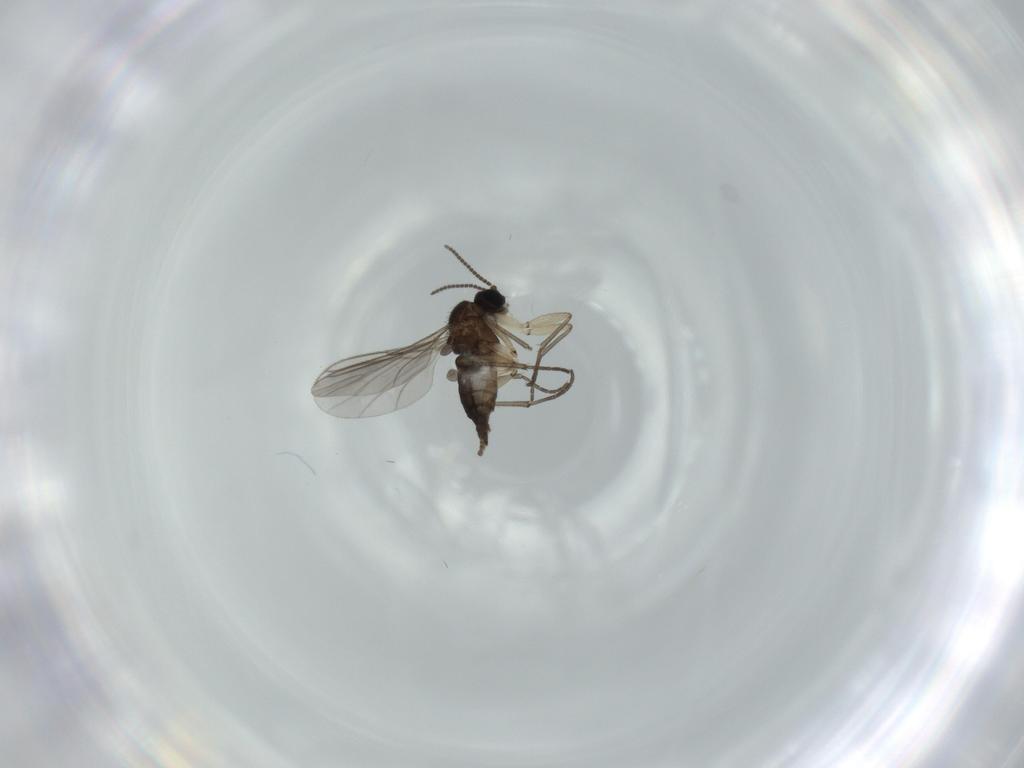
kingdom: Animalia
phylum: Arthropoda
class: Insecta
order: Diptera
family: Sciaridae
